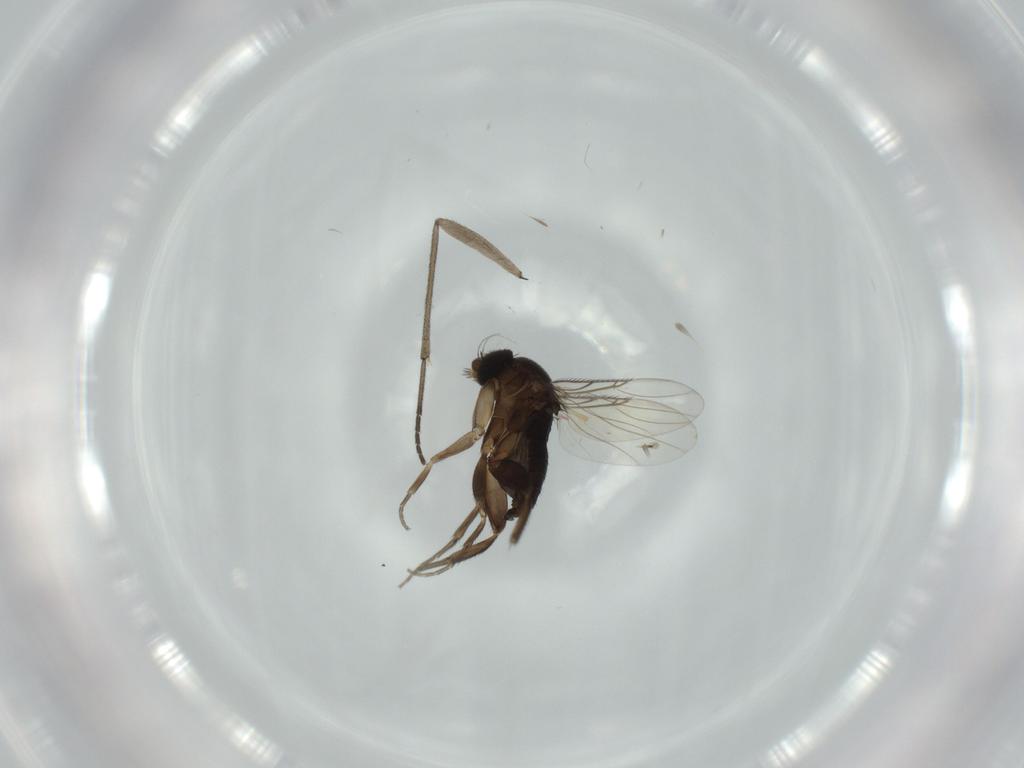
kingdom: Animalia
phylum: Arthropoda
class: Insecta
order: Diptera
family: Phoridae
